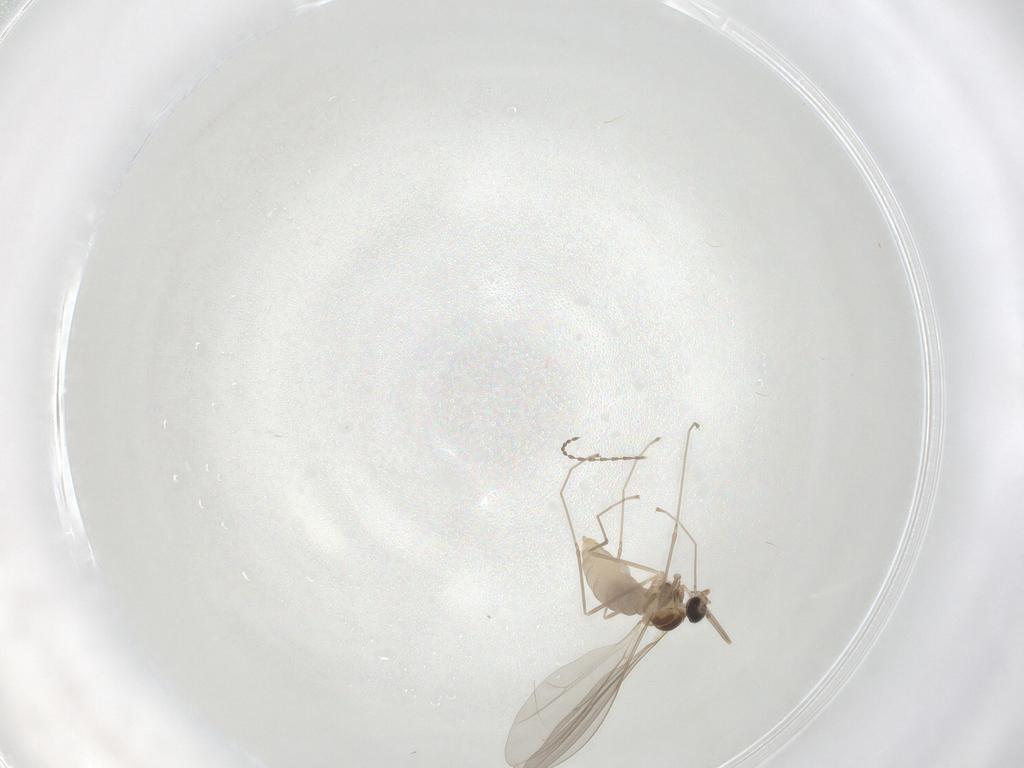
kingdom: Animalia
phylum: Arthropoda
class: Insecta
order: Diptera
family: Cecidomyiidae
